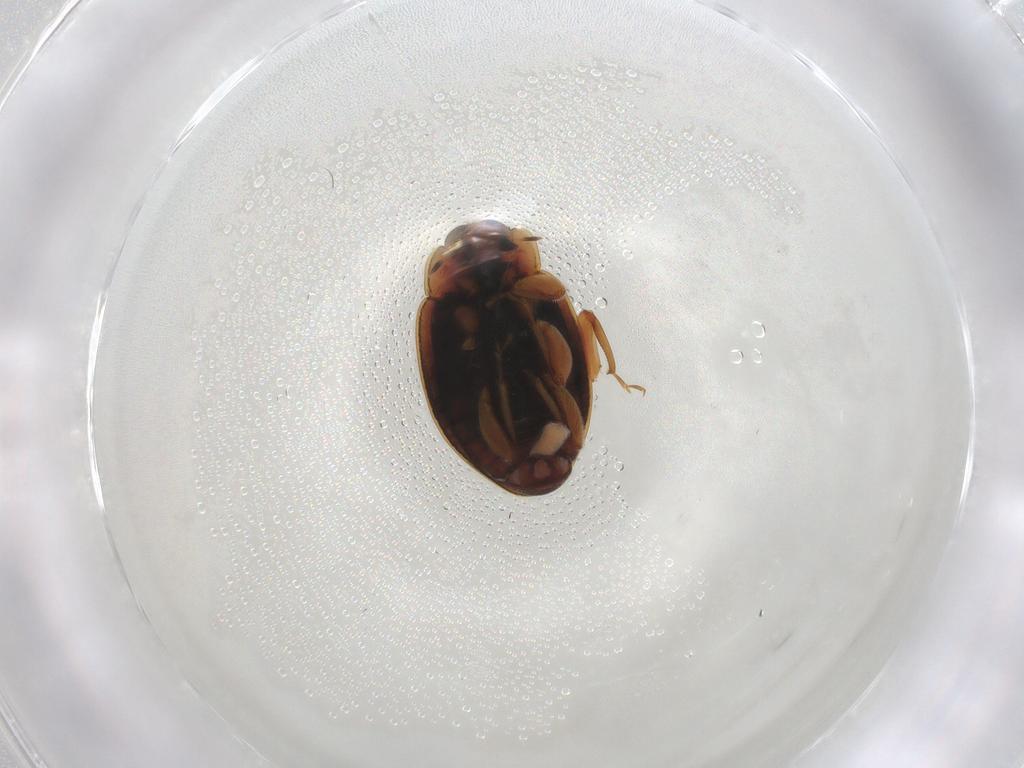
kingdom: Animalia
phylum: Arthropoda
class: Insecta
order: Coleoptera
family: Coccinellidae
